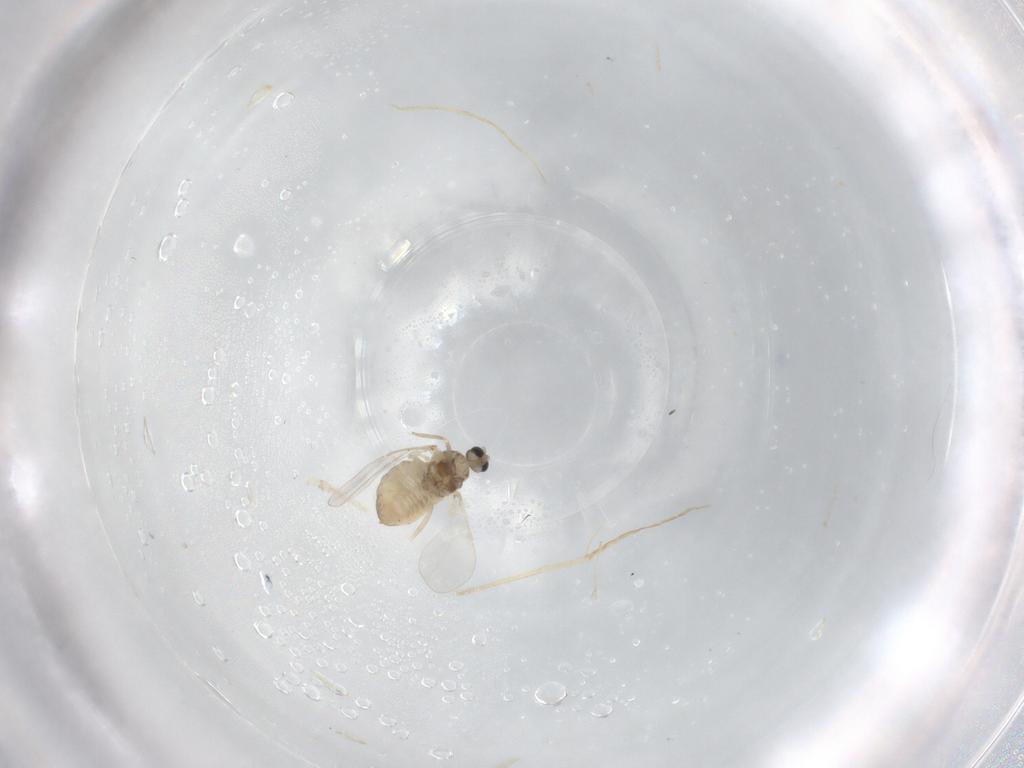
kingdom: Animalia
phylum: Arthropoda
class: Insecta
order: Diptera
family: Cecidomyiidae
